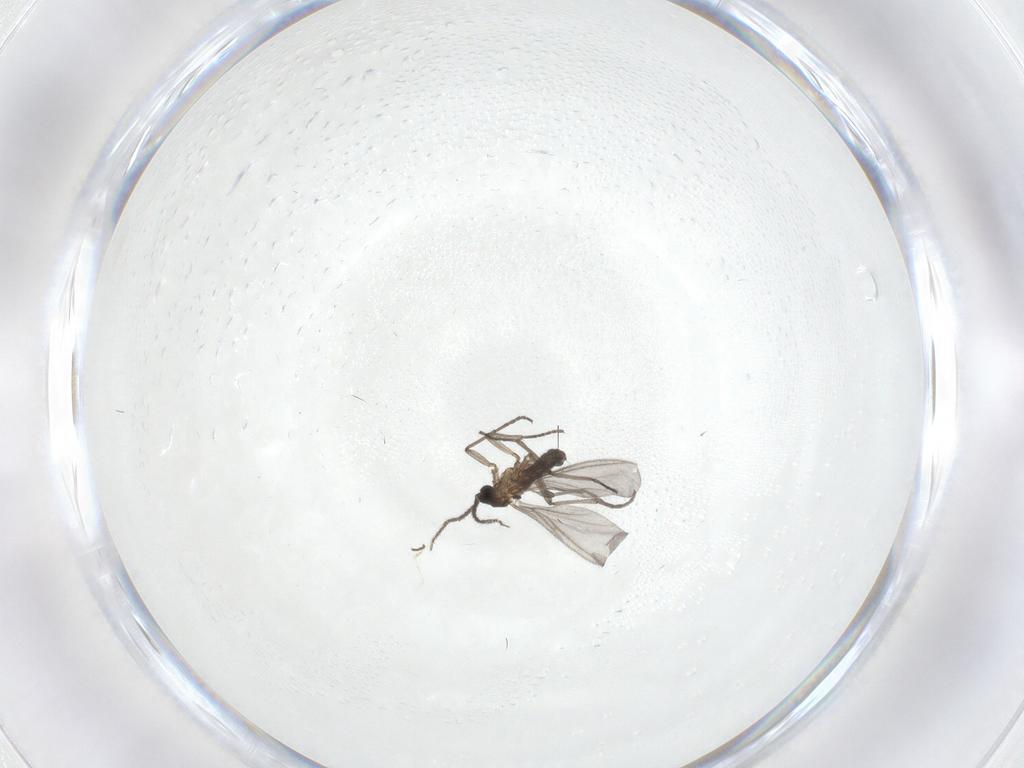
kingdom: Animalia
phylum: Arthropoda
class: Insecta
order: Diptera
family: Sciaridae
